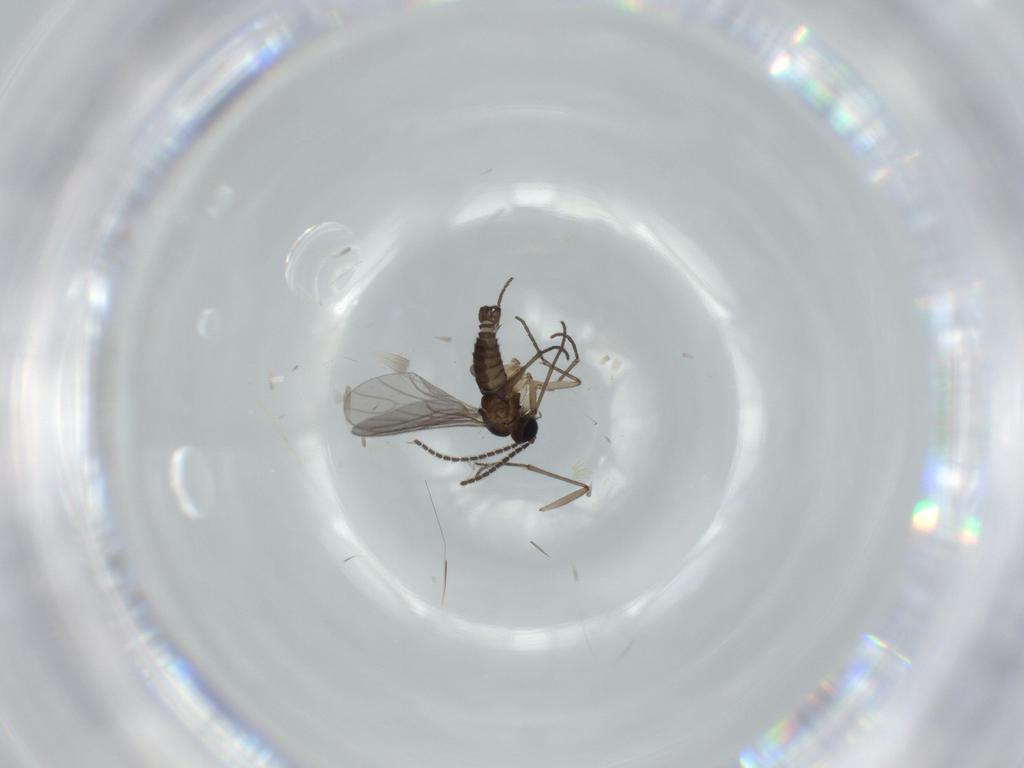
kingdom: Animalia
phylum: Arthropoda
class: Insecta
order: Diptera
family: Sciaridae
